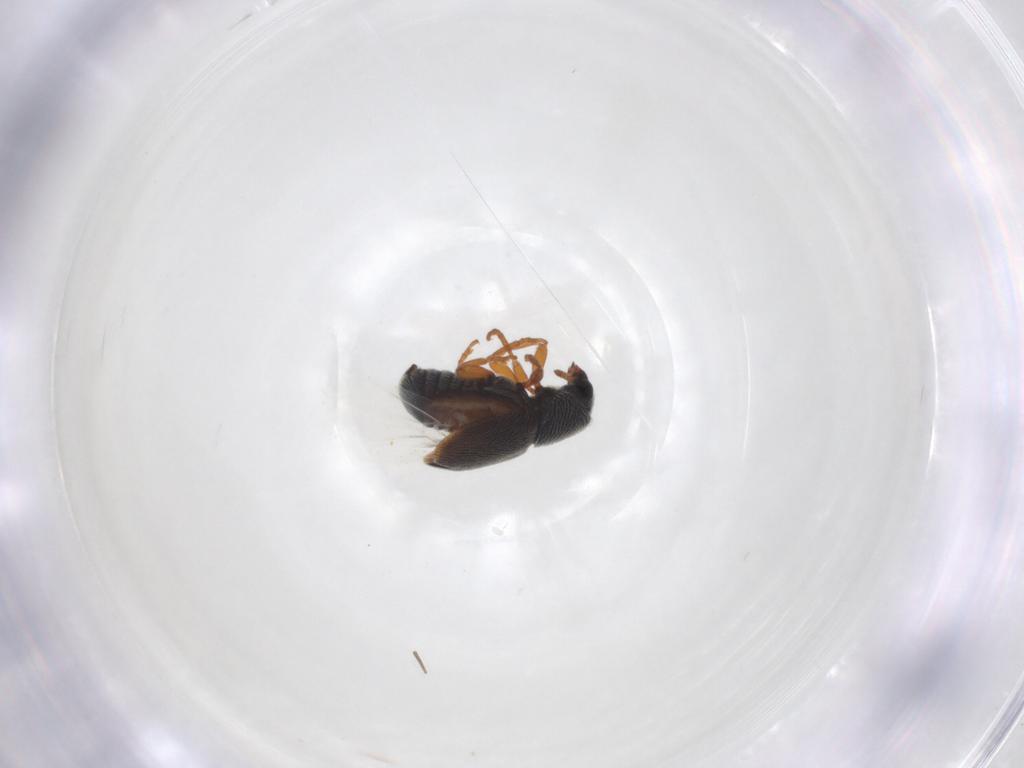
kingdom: Animalia
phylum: Arthropoda
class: Insecta
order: Coleoptera
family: Anthribidae
